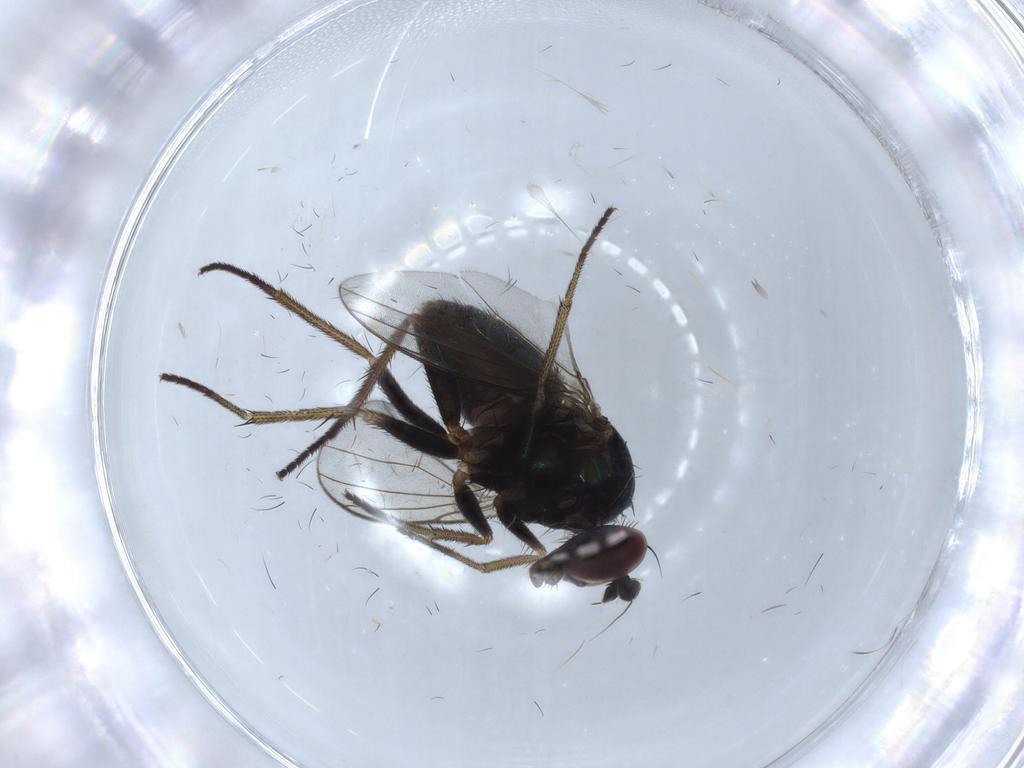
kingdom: Animalia
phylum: Arthropoda
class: Insecta
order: Diptera
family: Dolichopodidae
